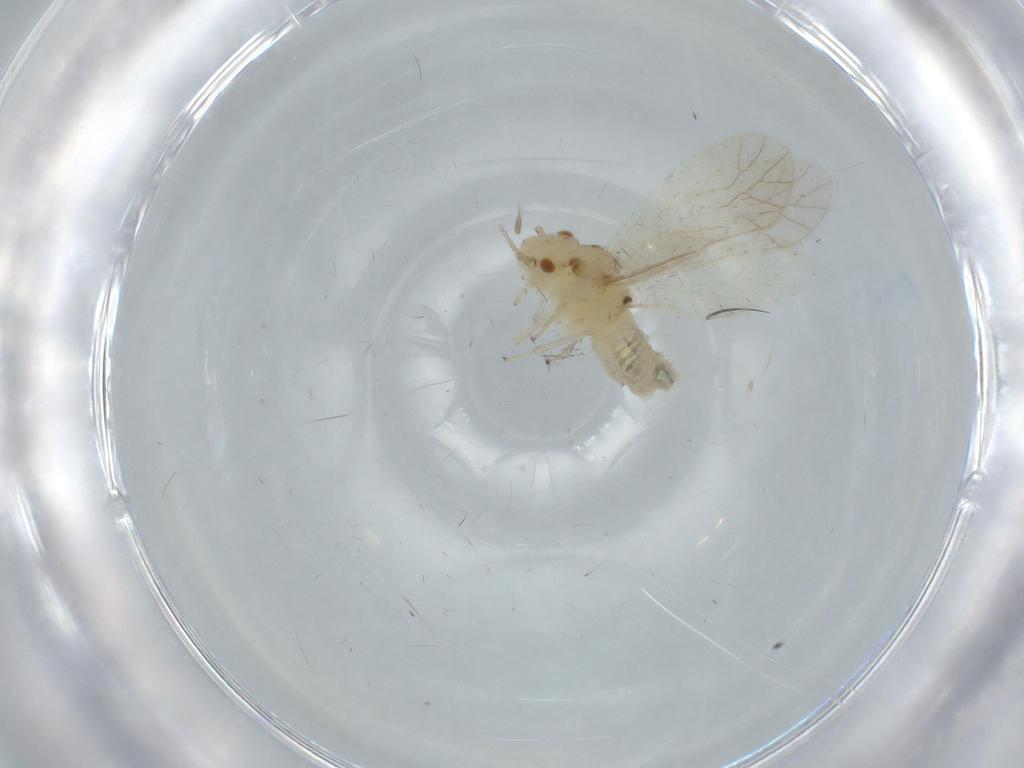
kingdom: Animalia
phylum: Arthropoda
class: Insecta
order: Psocodea
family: Caeciliusidae
